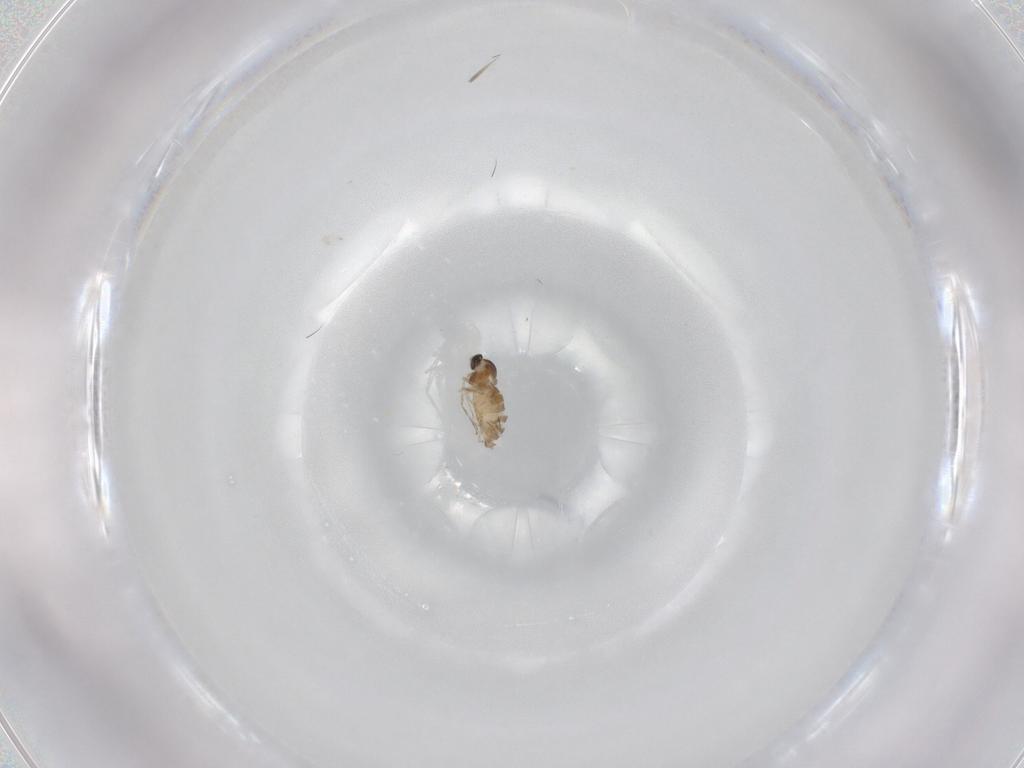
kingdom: Animalia
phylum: Arthropoda
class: Insecta
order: Diptera
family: Cecidomyiidae
